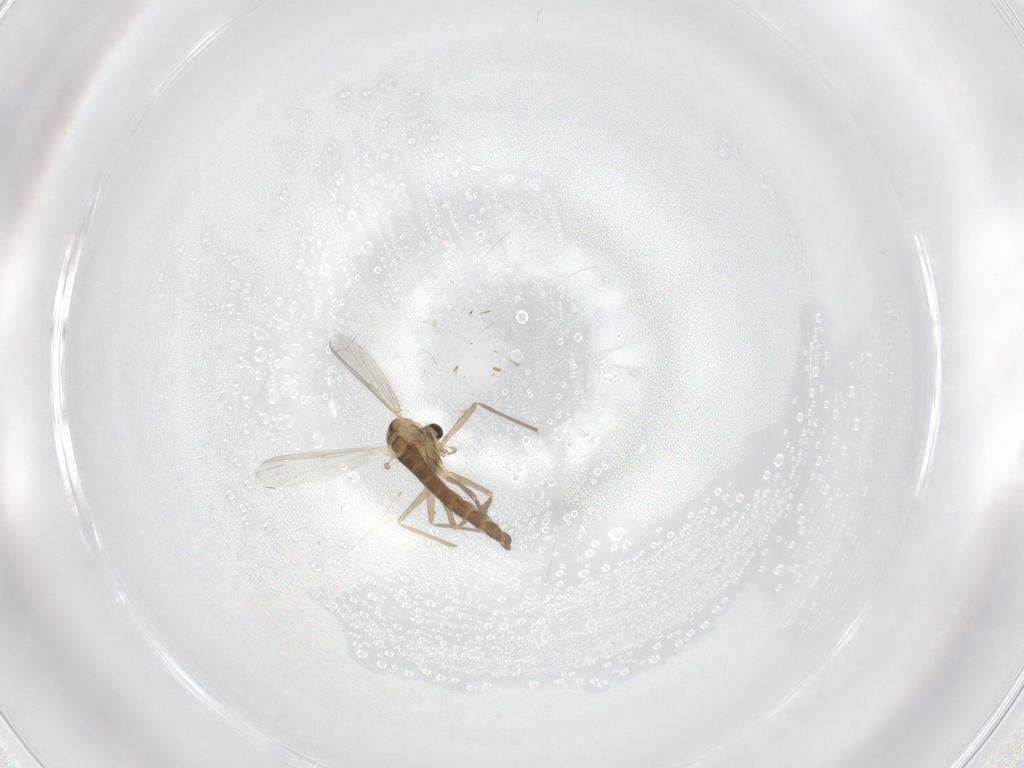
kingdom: Animalia
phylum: Arthropoda
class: Insecta
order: Diptera
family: Chironomidae
